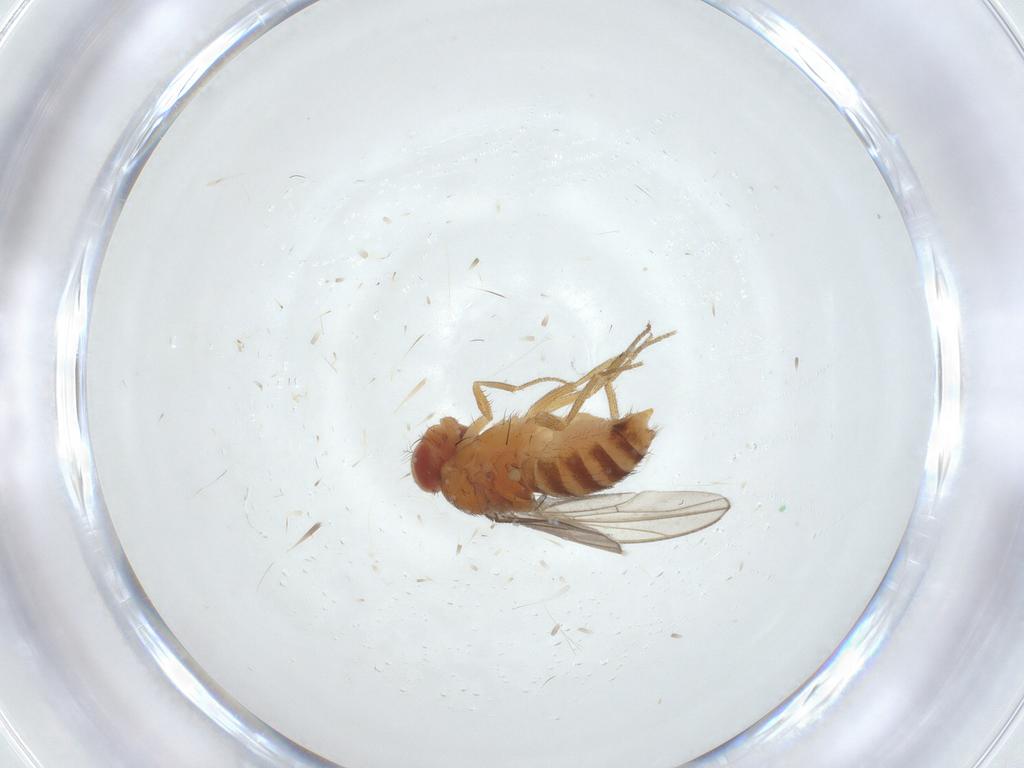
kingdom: Animalia
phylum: Arthropoda
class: Insecta
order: Diptera
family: Drosophilidae
